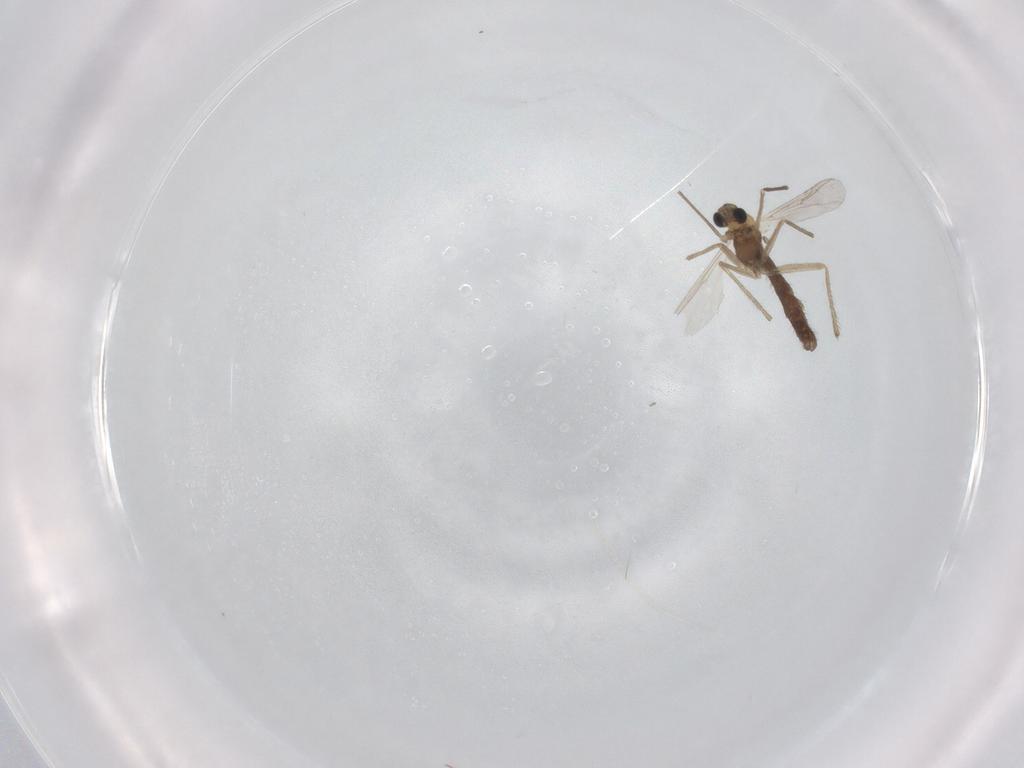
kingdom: Animalia
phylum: Arthropoda
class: Insecta
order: Diptera
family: Chironomidae
